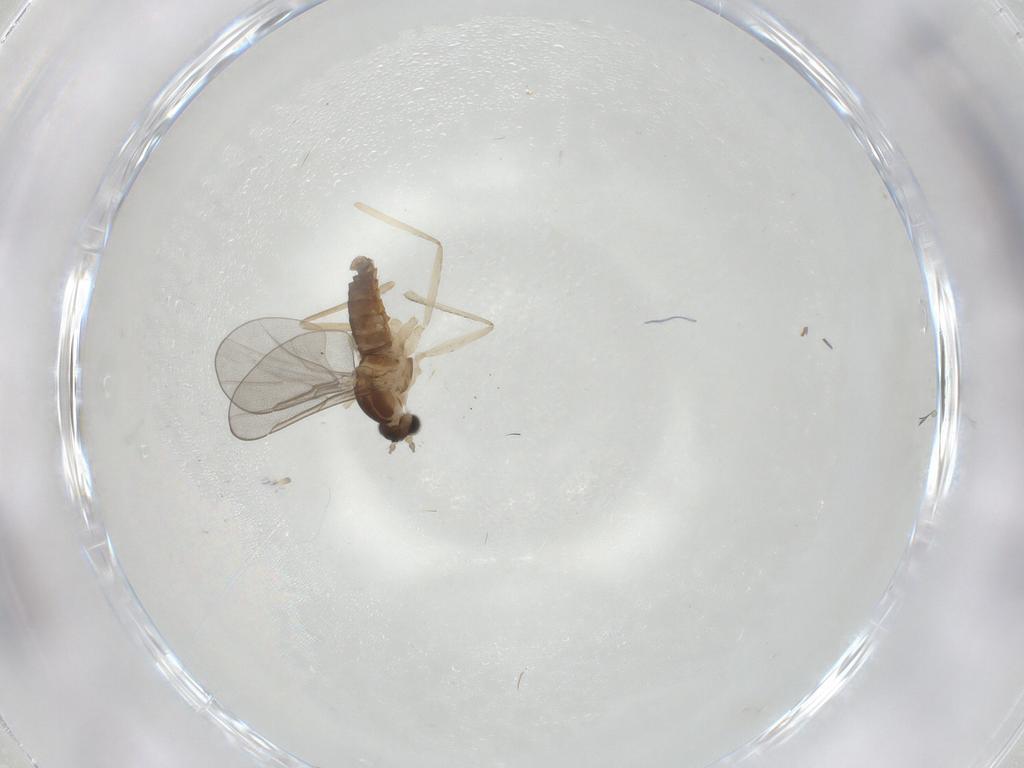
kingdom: Animalia
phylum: Arthropoda
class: Insecta
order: Diptera
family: Cecidomyiidae
